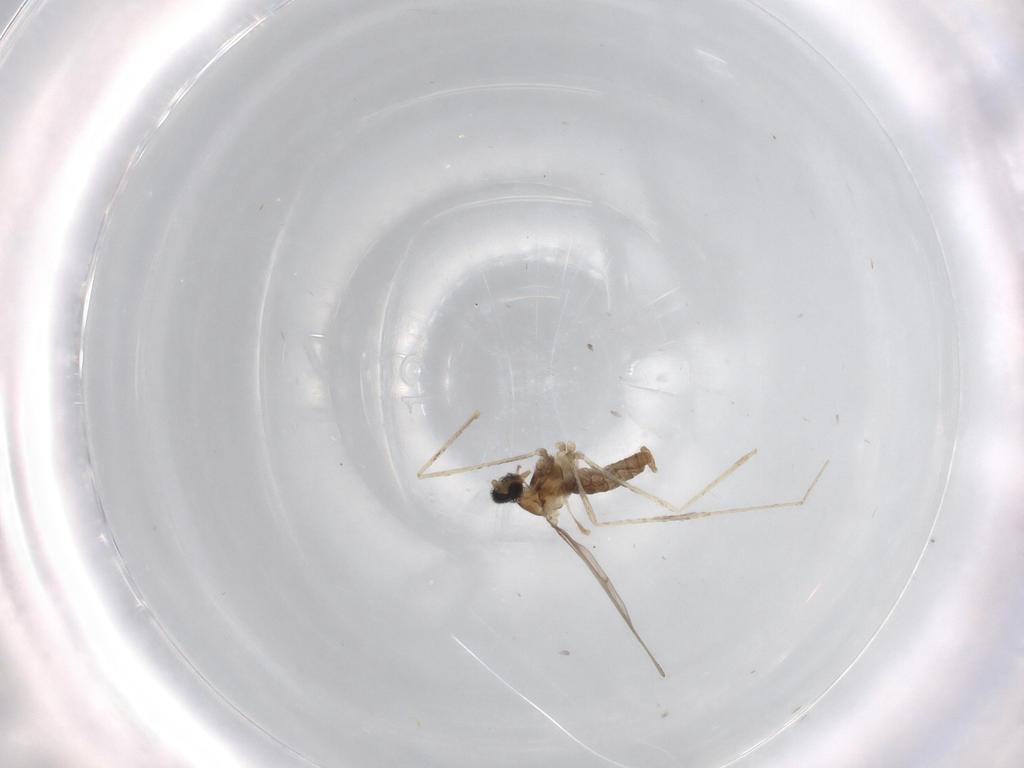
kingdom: Animalia
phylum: Arthropoda
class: Insecta
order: Diptera
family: Cecidomyiidae
